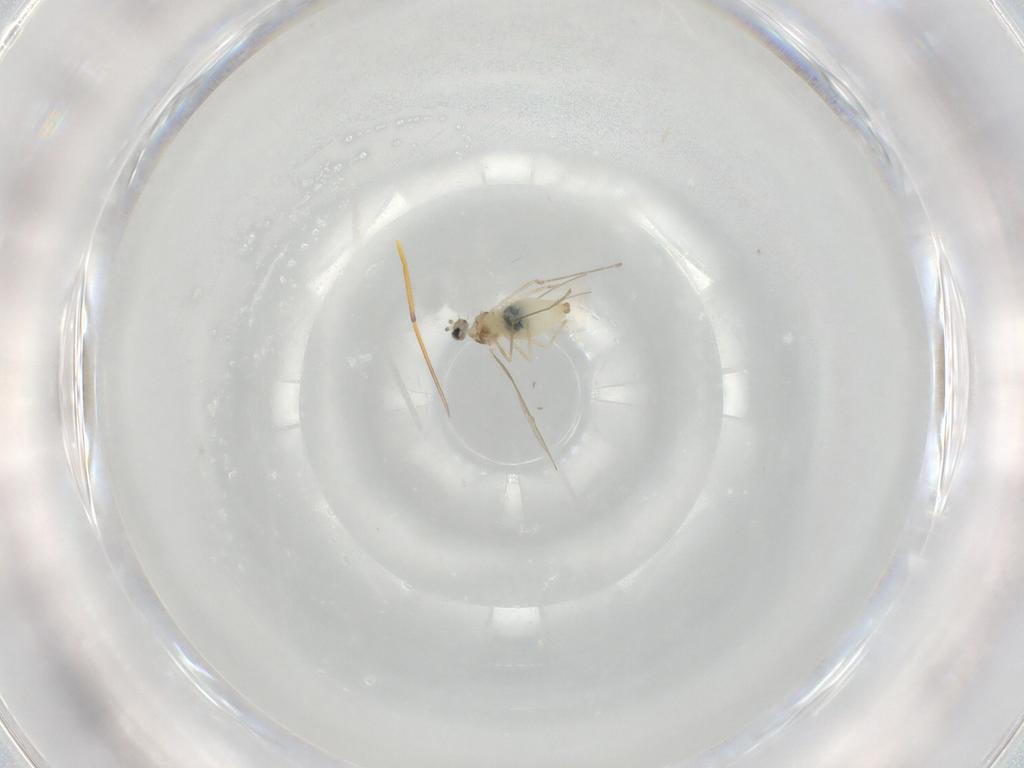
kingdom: Animalia
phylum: Arthropoda
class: Insecta
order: Diptera
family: Cecidomyiidae
